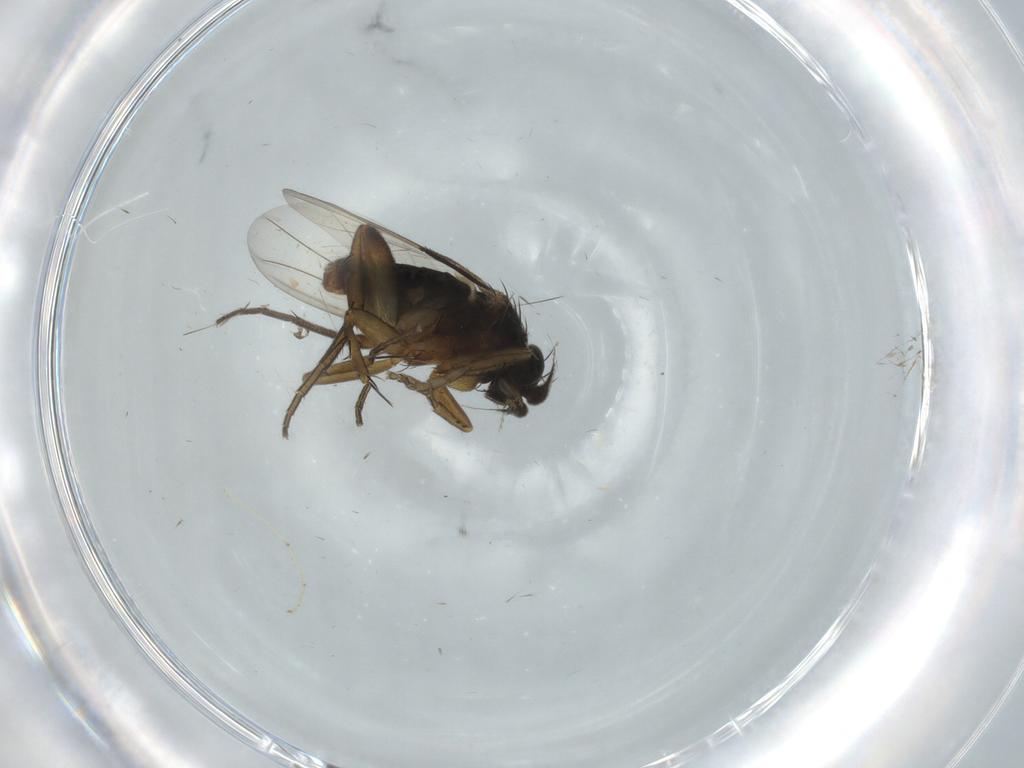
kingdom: Animalia
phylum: Arthropoda
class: Insecta
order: Diptera
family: Phoridae
